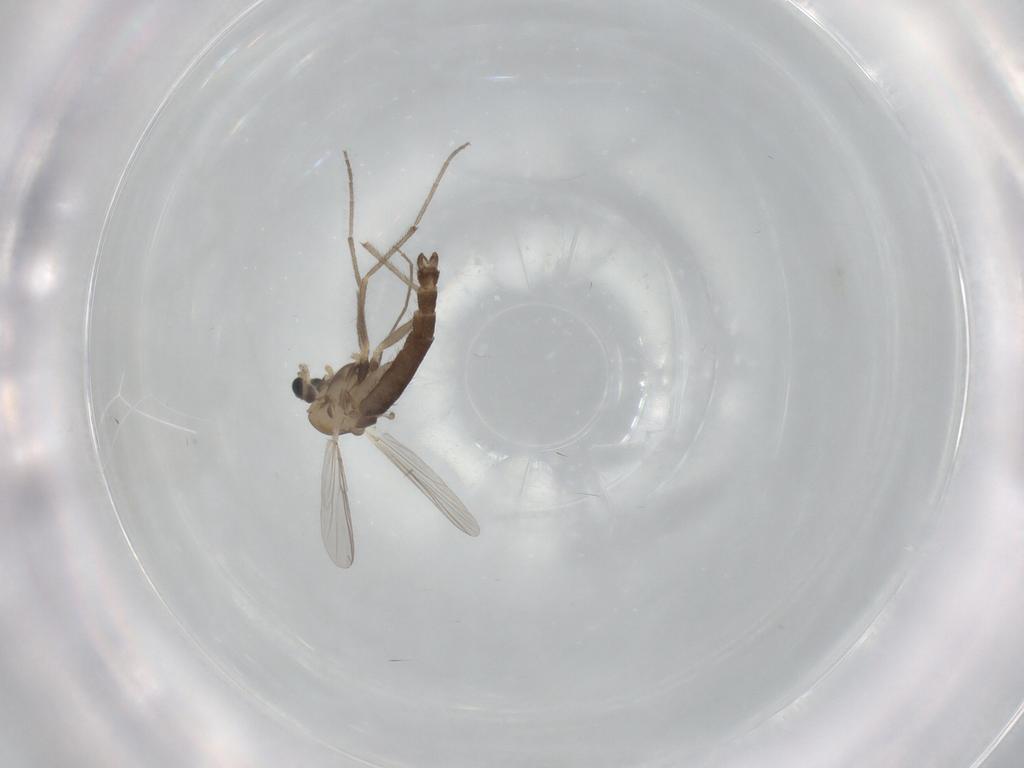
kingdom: Animalia
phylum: Arthropoda
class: Insecta
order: Diptera
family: Chironomidae
